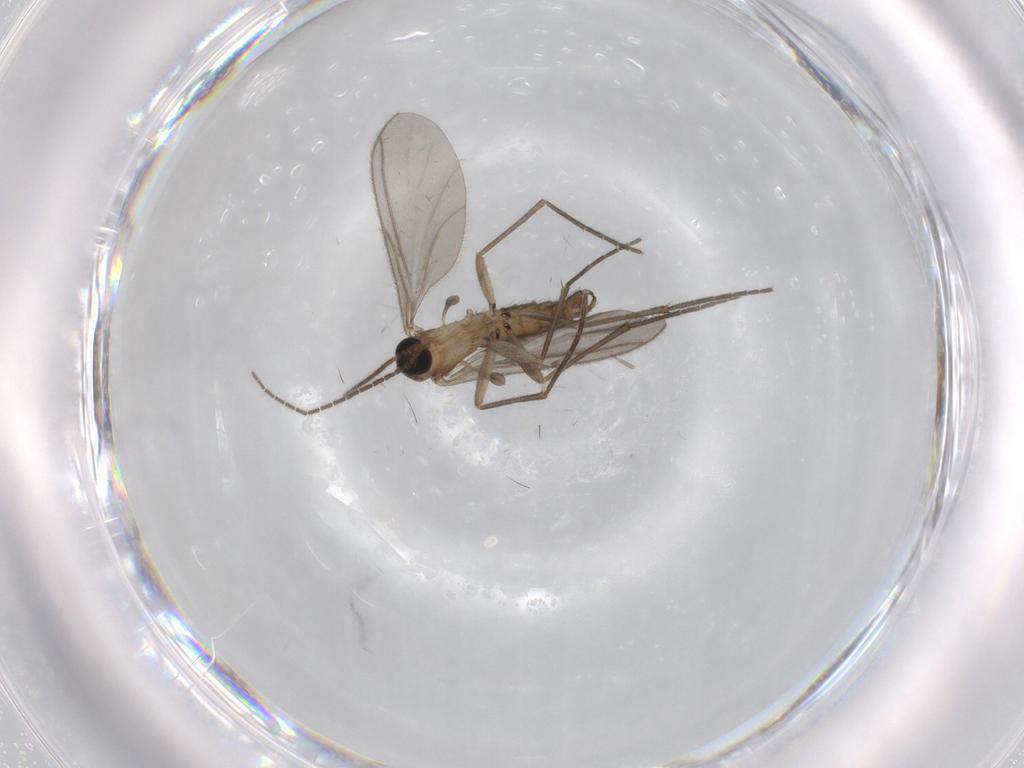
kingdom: Animalia
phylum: Arthropoda
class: Insecta
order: Diptera
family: Sciaridae
